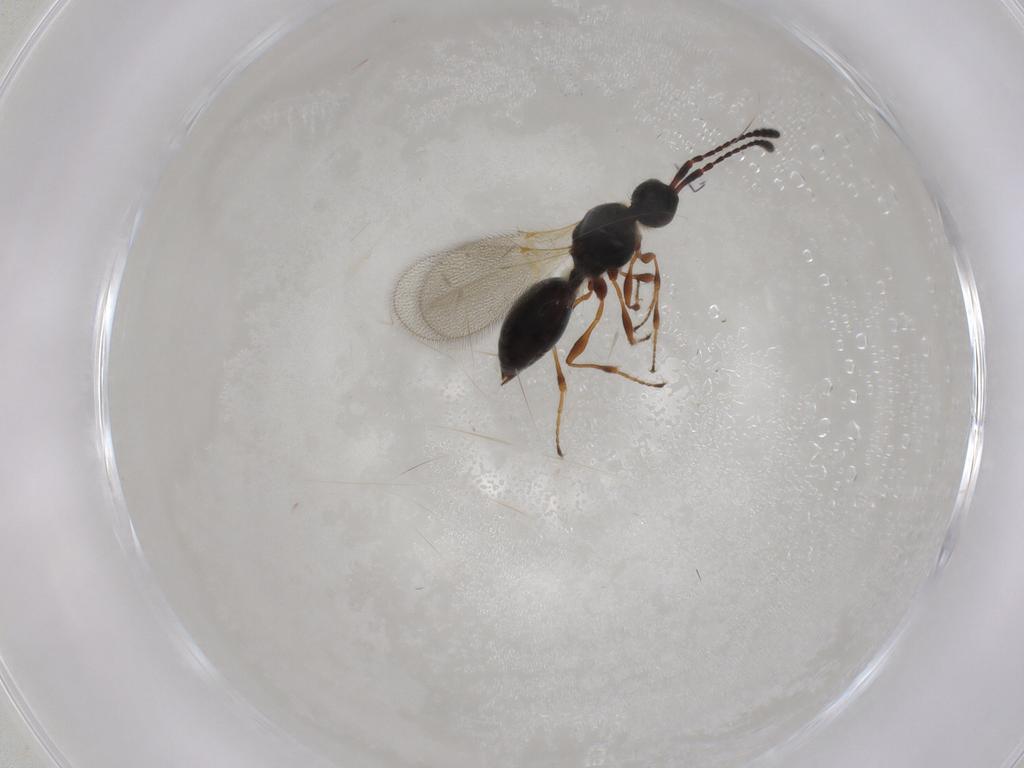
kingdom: Animalia
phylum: Arthropoda
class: Insecta
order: Hymenoptera
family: Diapriidae
